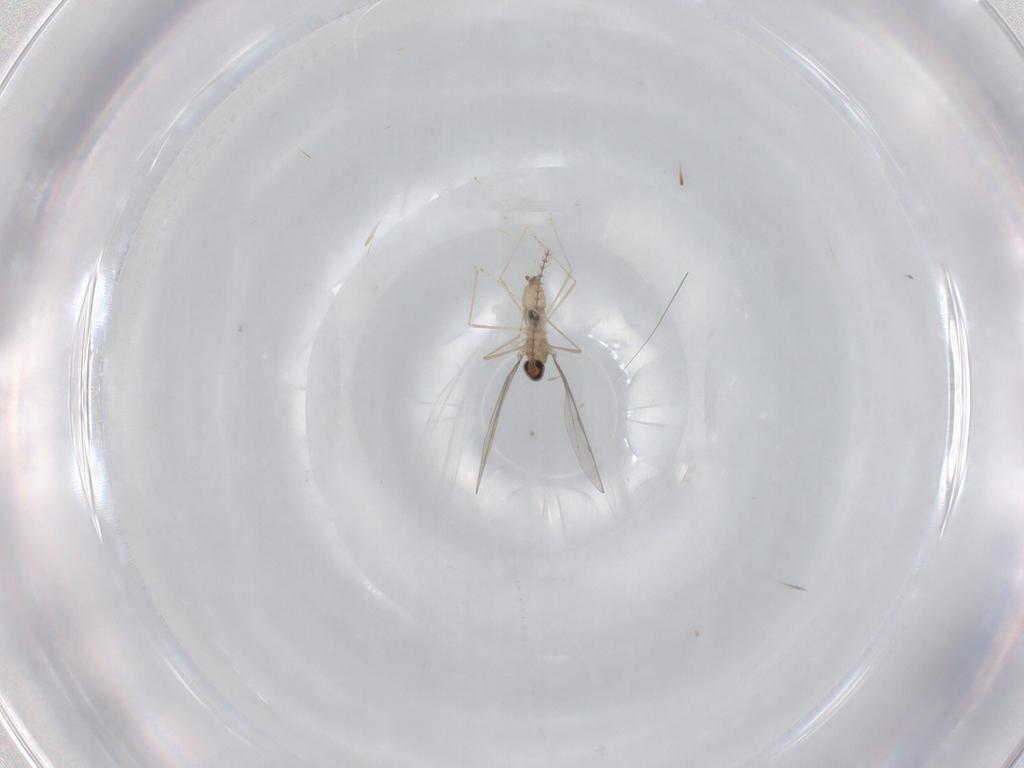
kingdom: Animalia
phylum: Arthropoda
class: Insecta
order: Diptera
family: Cecidomyiidae
